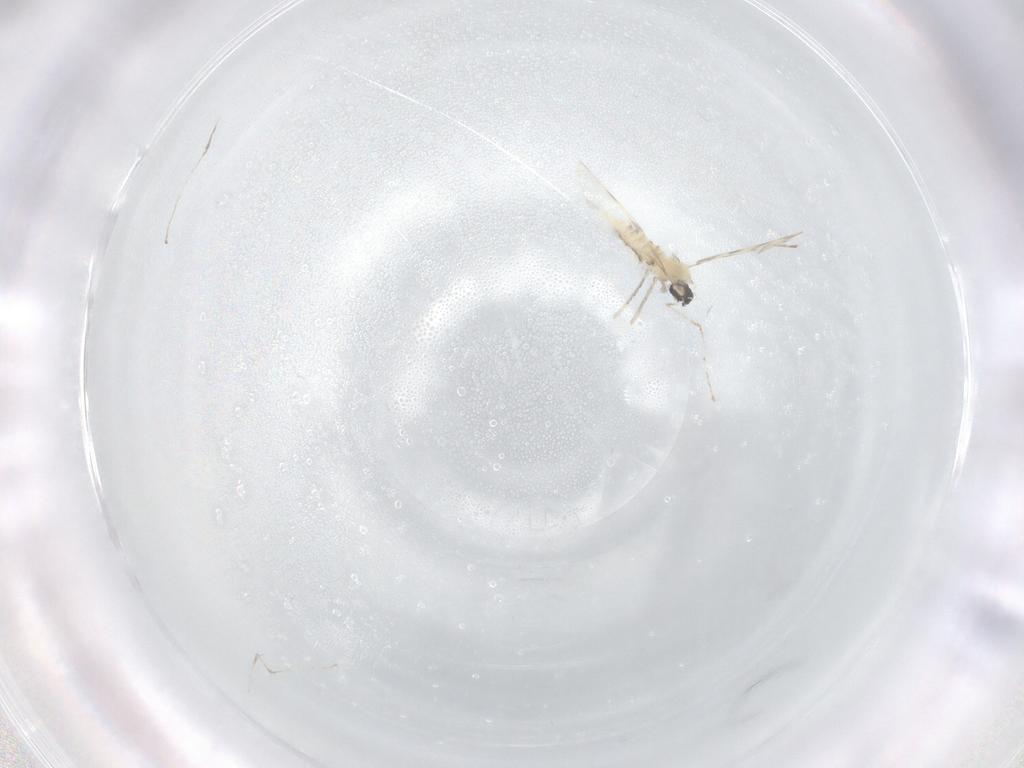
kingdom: Animalia
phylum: Arthropoda
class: Insecta
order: Diptera
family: Cecidomyiidae
